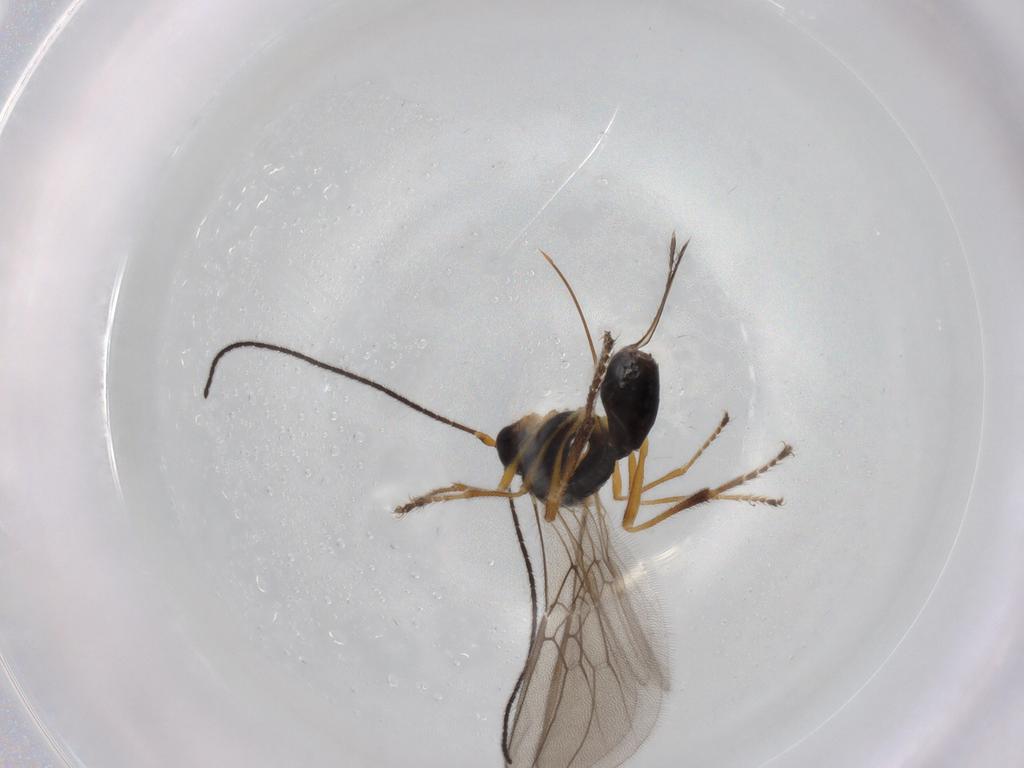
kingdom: Animalia
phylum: Arthropoda
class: Insecta
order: Hymenoptera
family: Braconidae
